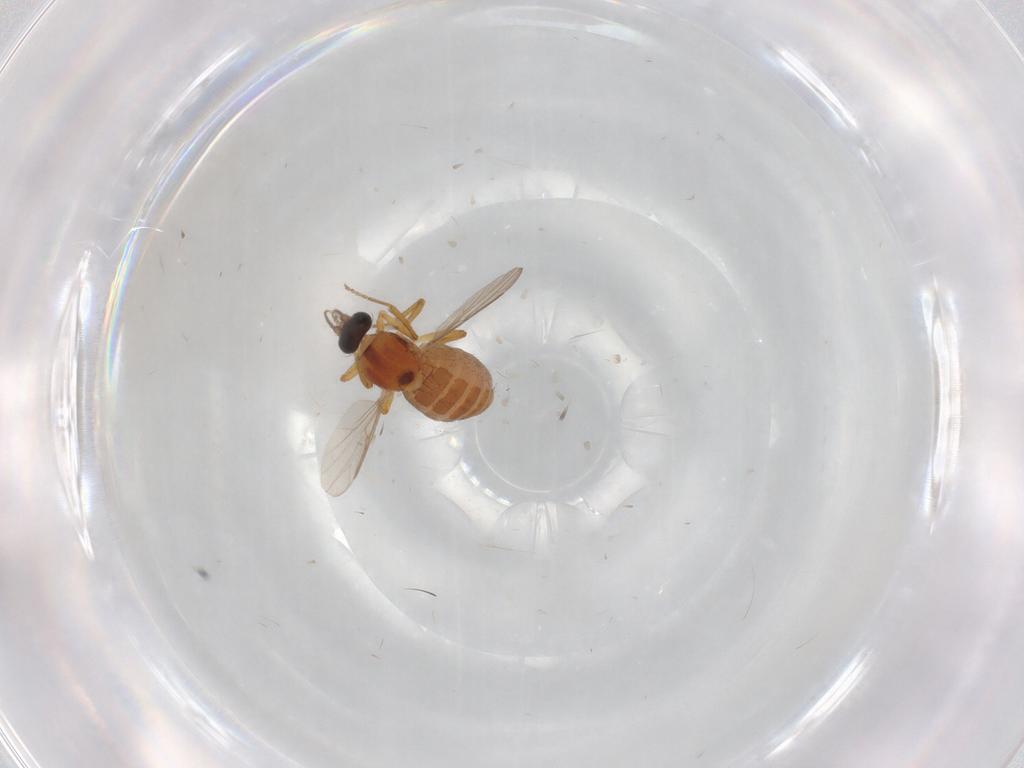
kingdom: Animalia
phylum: Arthropoda
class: Insecta
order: Diptera
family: Ceratopogonidae
